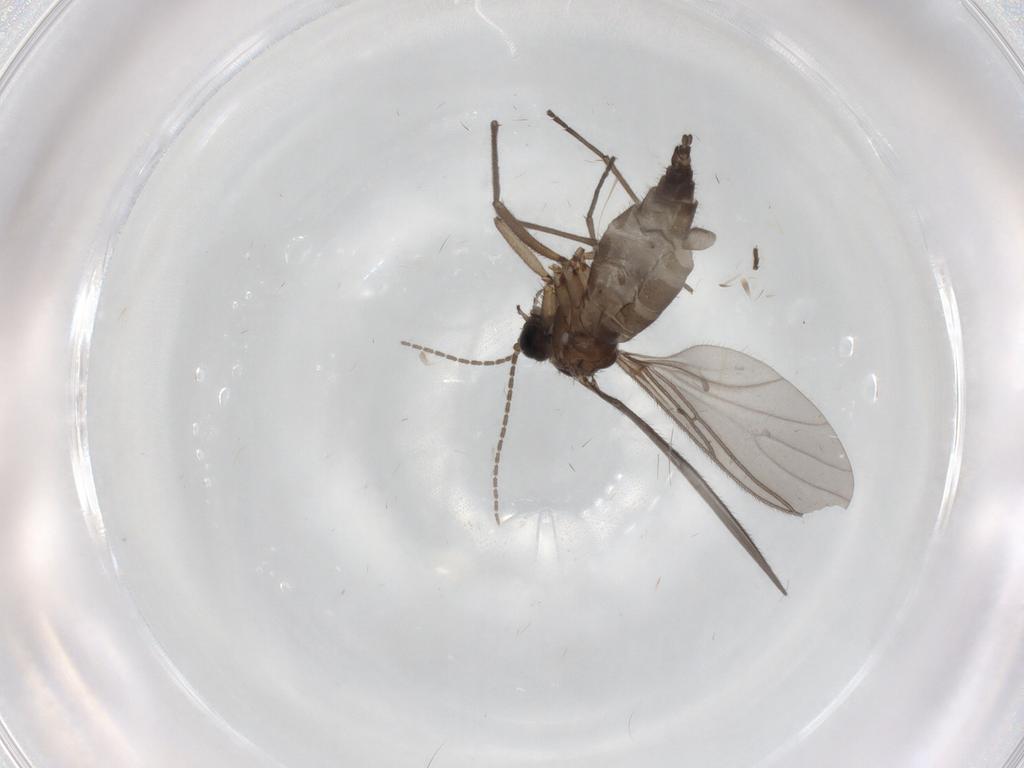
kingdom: Animalia
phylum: Arthropoda
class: Insecta
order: Diptera
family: Sciaridae
